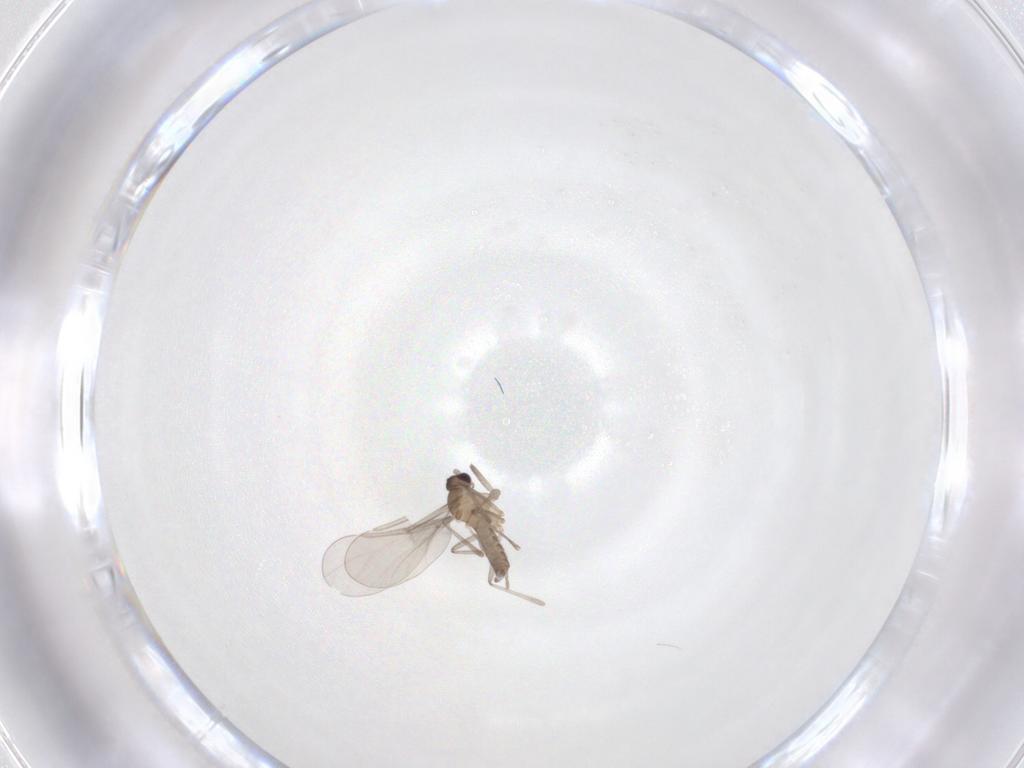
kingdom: Animalia
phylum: Arthropoda
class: Insecta
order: Diptera
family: Cecidomyiidae
